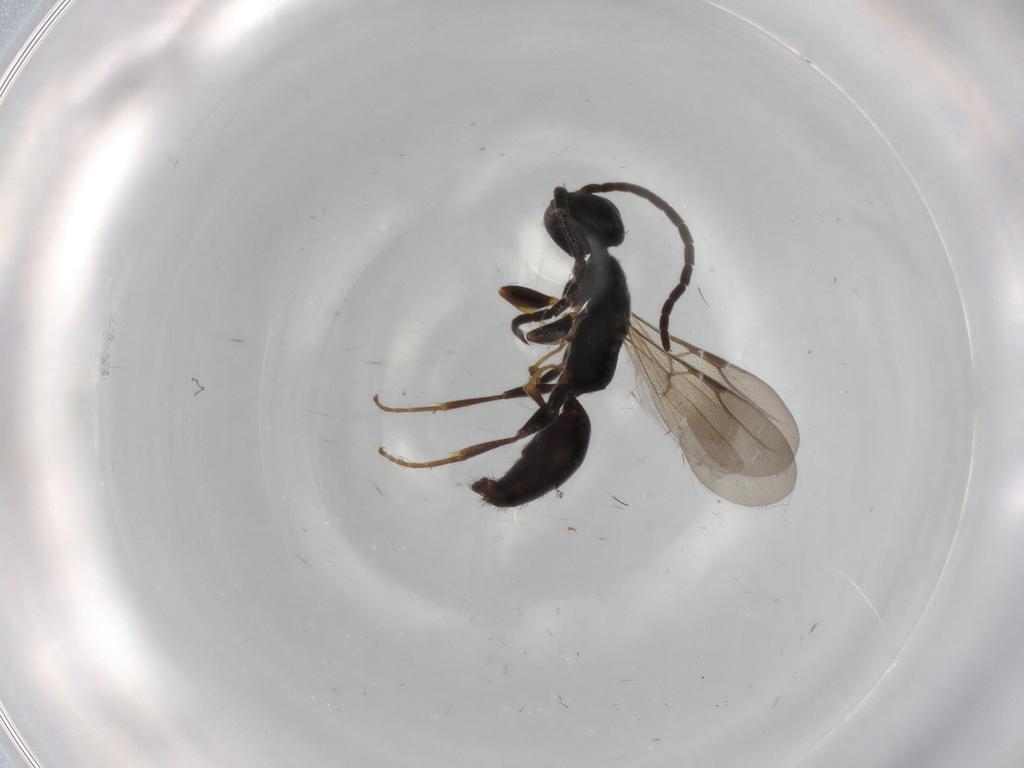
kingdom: Animalia
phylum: Arthropoda
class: Insecta
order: Hymenoptera
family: Bethylidae
